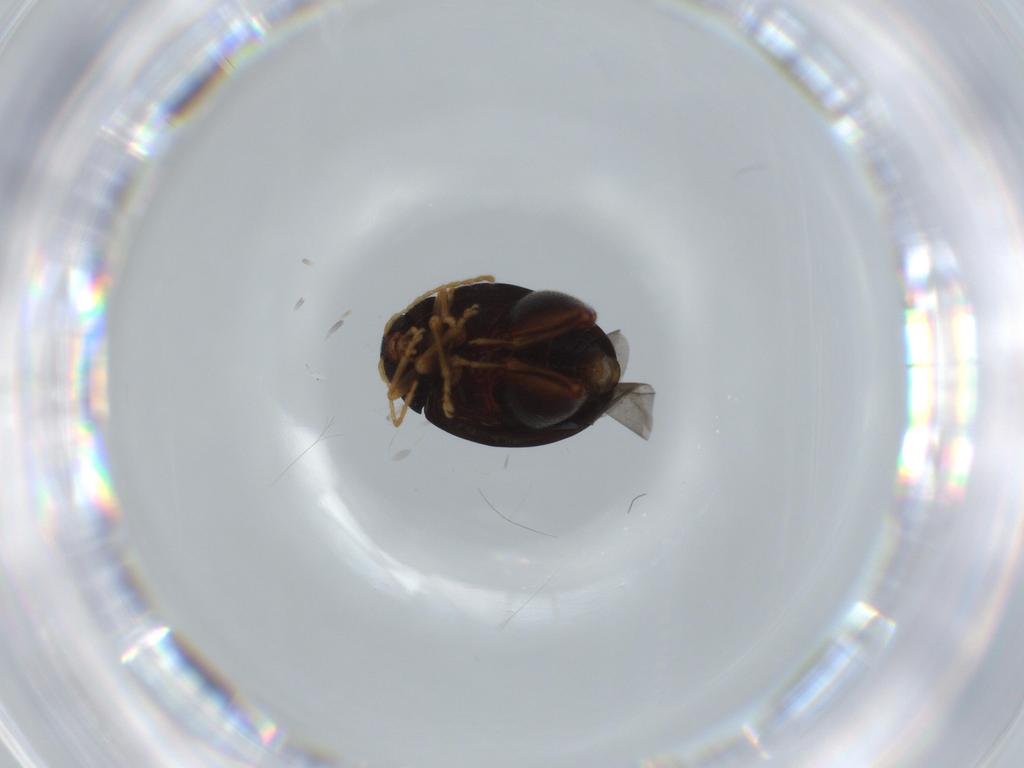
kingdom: Animalia
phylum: Arthropoda
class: Insecta
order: Coleoptera
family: Chrysomelidae
